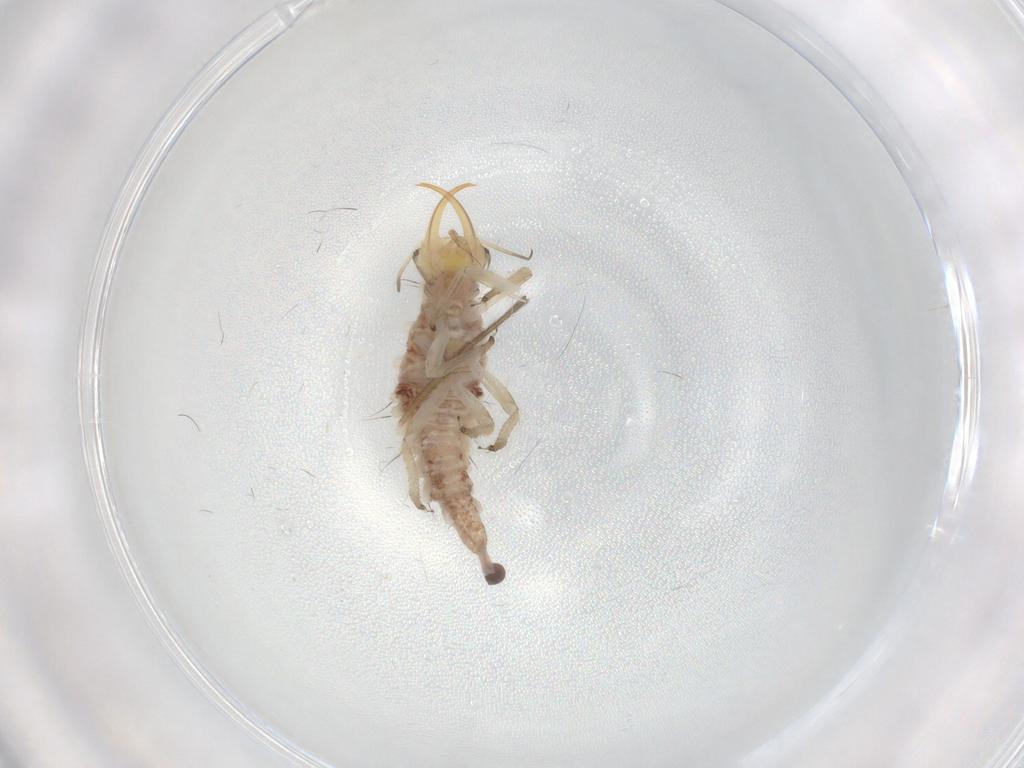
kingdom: Animalia
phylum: Arthropoda
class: Insecta
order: Neuroptera
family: Chrysopidae
